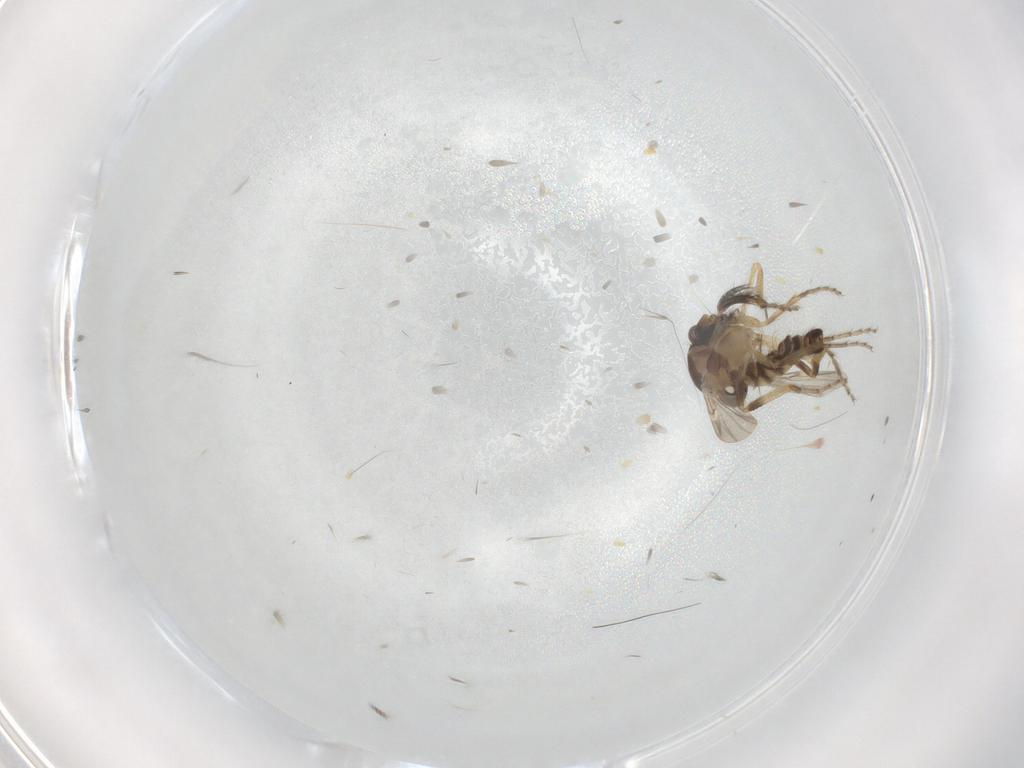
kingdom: Animalia
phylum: Arthropoda
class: Insecta
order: Diptera
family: Ceratopogonidae
